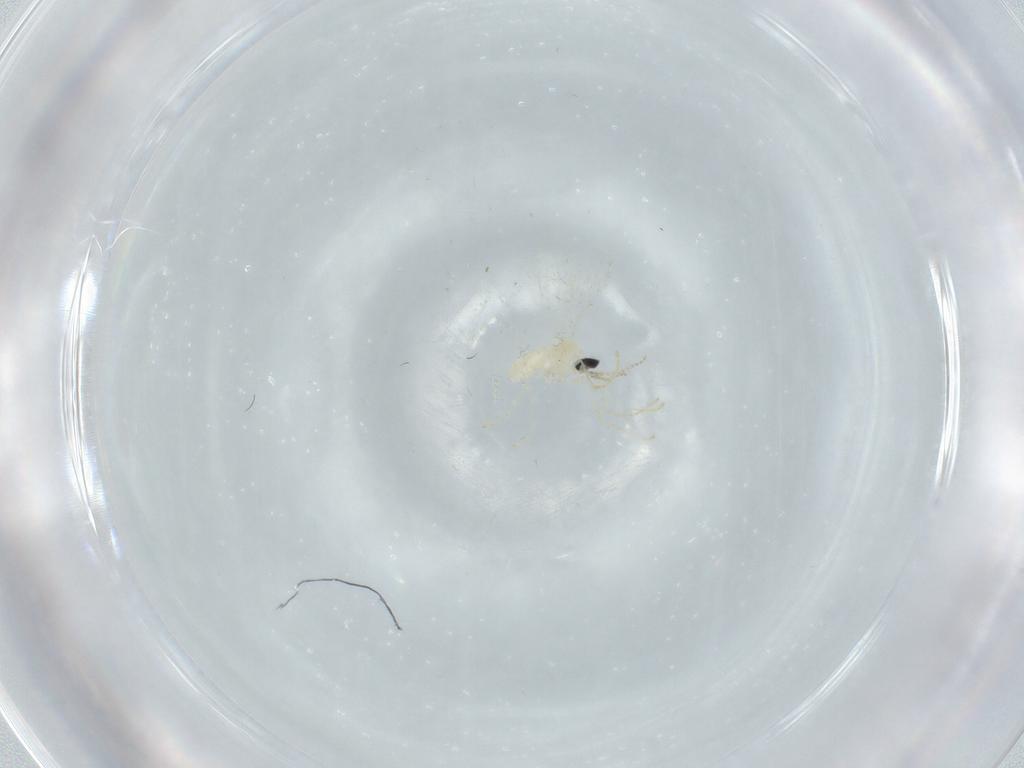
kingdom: Animalia
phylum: Arthropoda
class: Insecta
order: Diptera
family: Cecidomyiidae
